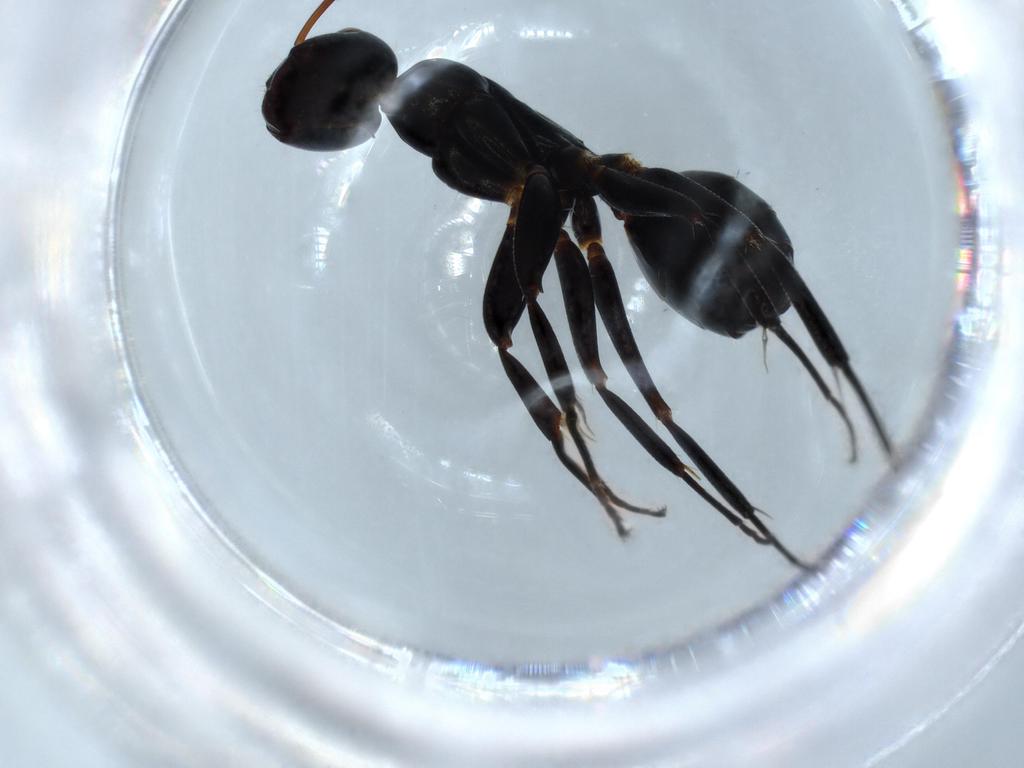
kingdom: Animalia
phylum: Arthropoda
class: Insecta
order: Hymenoptera
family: Formicidae
